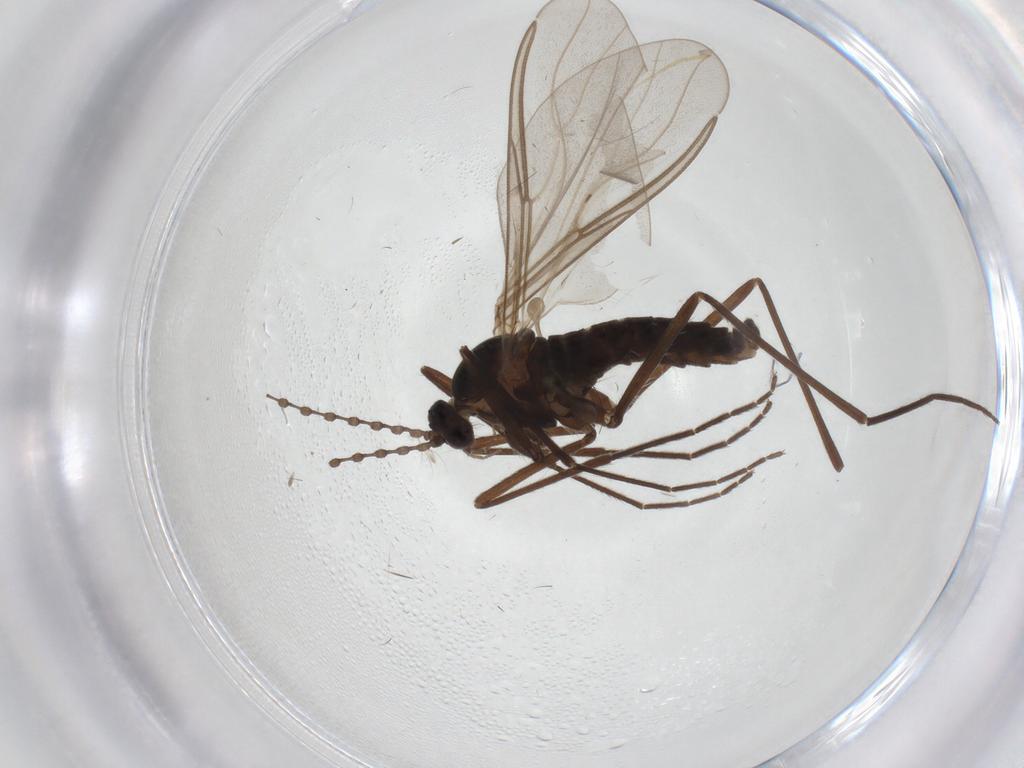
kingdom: Animalia
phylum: Arthropoda
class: Insecta
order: Diptera
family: Cecidomyiidae
